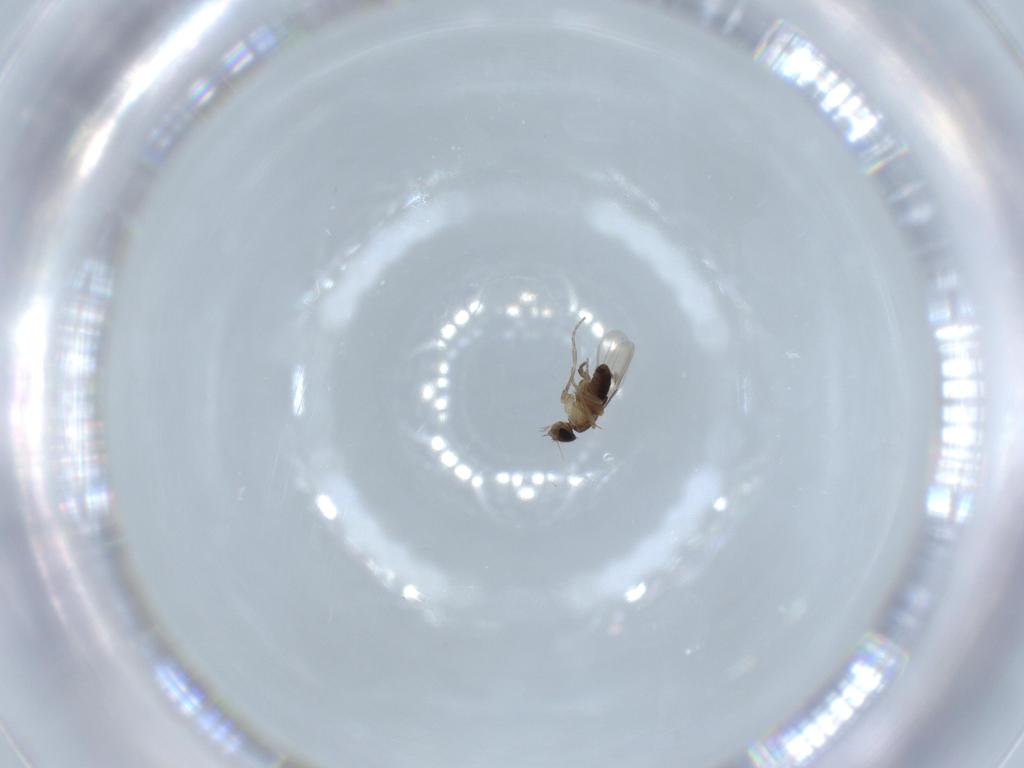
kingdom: Animalia
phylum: Arthropoda
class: Insecta
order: Diptera
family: Phoridae
